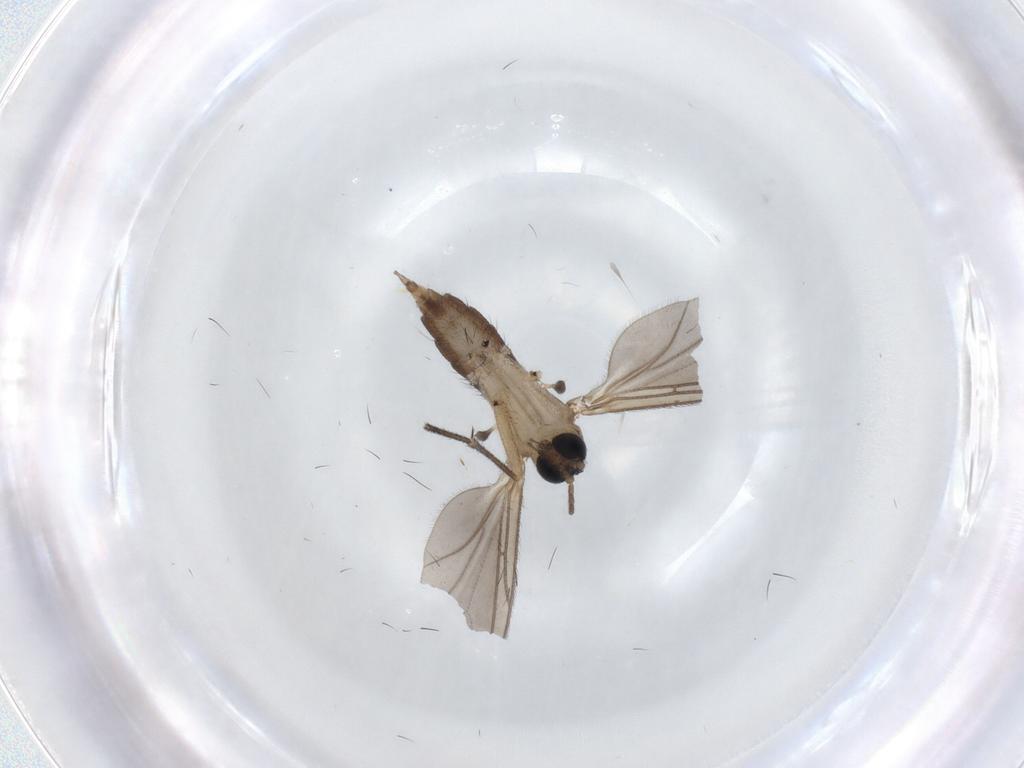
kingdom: Animalia
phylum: Arthropoda
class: Insecta
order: Diptera
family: Sciaridae
